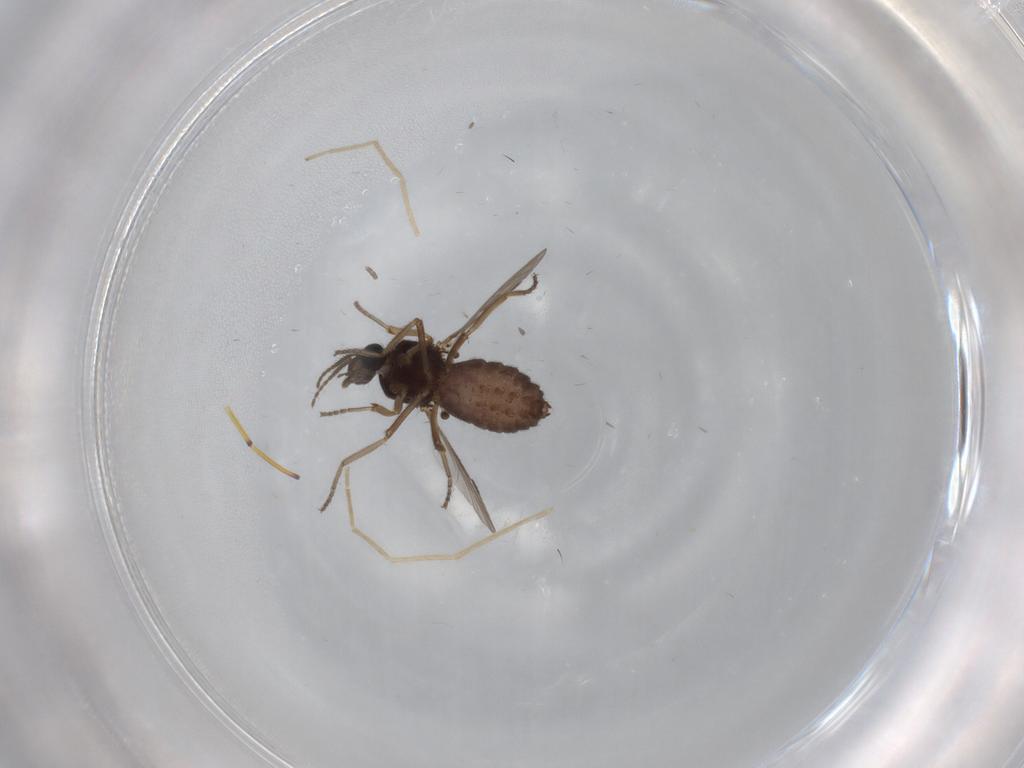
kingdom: Animalia
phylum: Arthropoda
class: Insecta
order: Diptera
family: Ceratopogonidae
